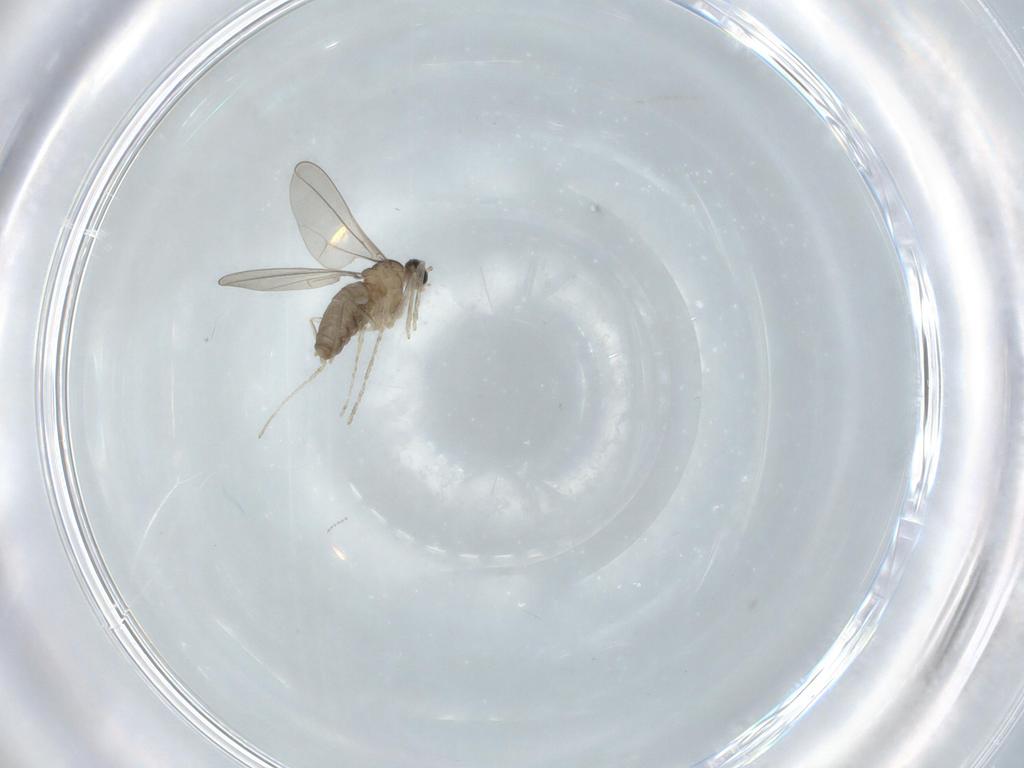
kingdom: Animalia
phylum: Arthropoda
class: Insecta
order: Diptera
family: Cecidomyiidae
